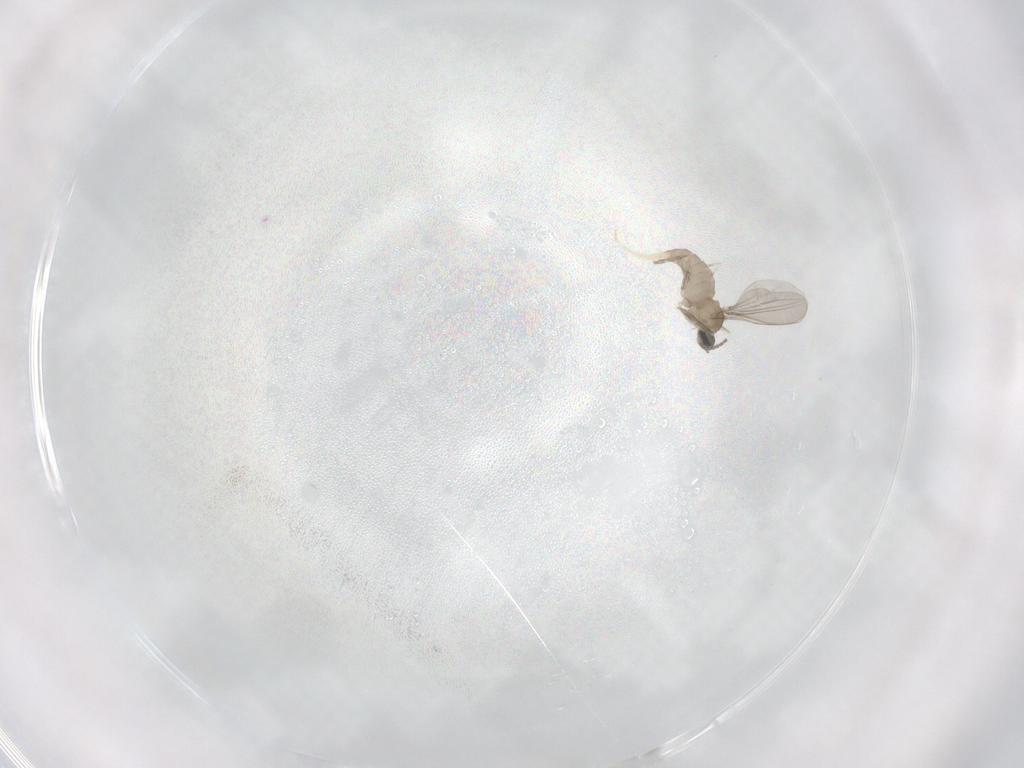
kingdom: Animalia
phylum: Arthropoda
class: Insecta
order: Diptera
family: Cecidomyiidae
